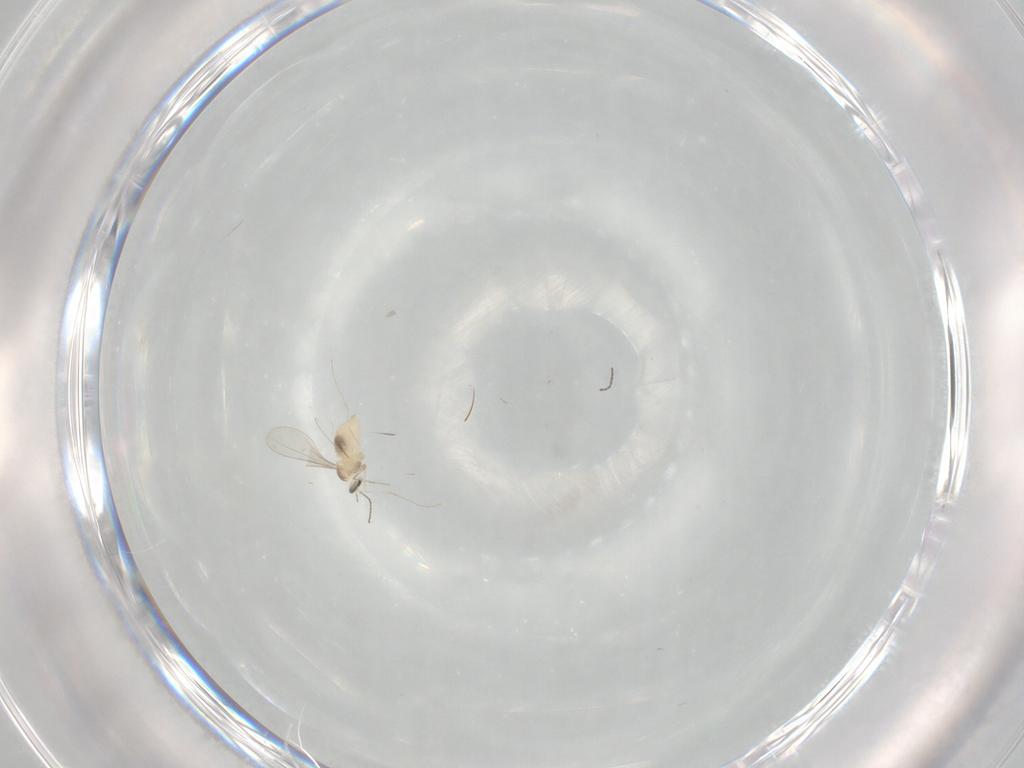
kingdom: Animalia
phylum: Arthropoda
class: Insecta
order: Diptera
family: Cecidomyiidae
